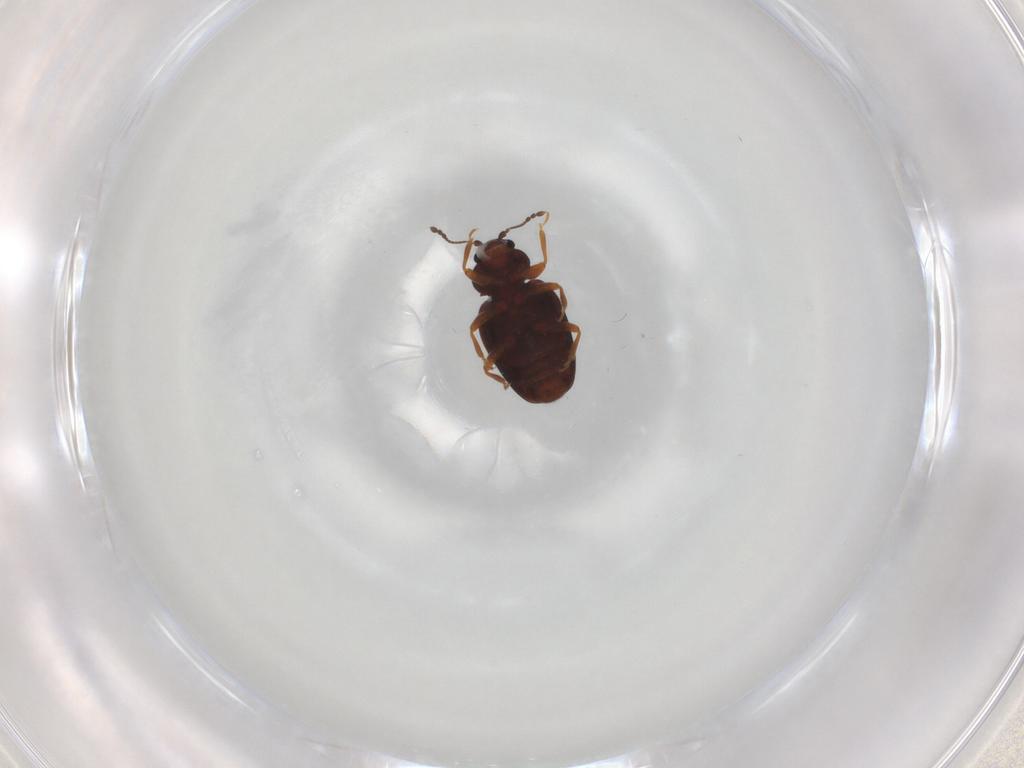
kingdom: Animalia
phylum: Arthropoda
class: Insecta
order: Coleoptera
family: Latridiidae
